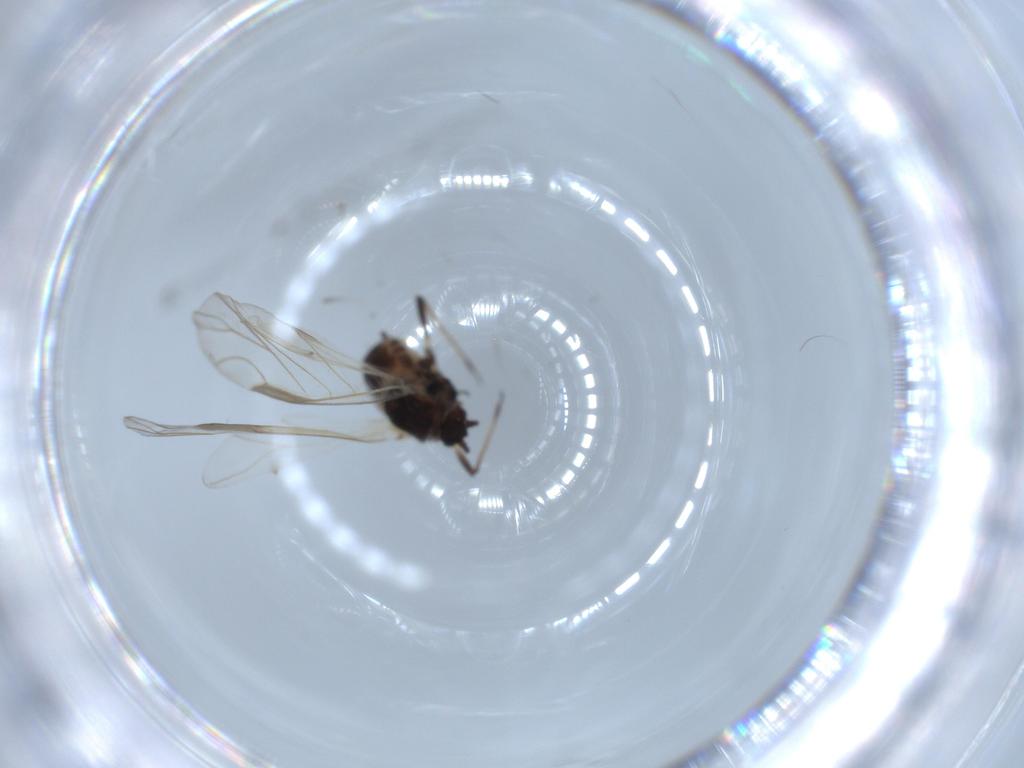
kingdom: Animalia
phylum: Arthropoda
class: Insecta
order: Hemiptera
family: Aphididae
